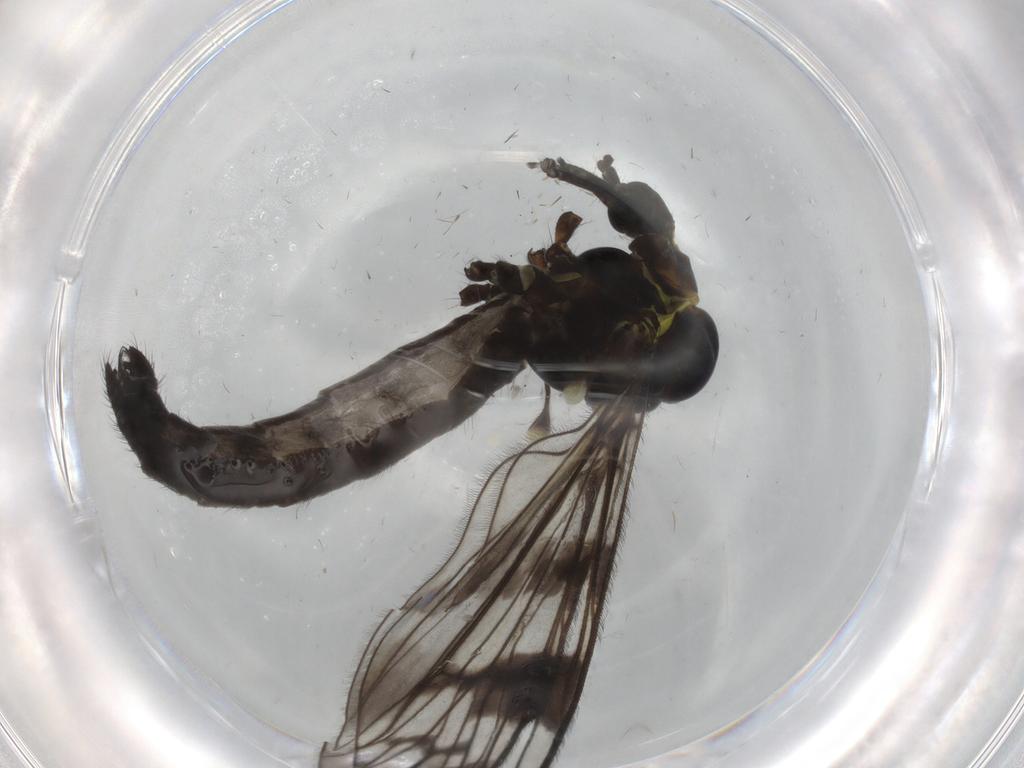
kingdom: Animalia
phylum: Arthropoda
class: Insecta
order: Diptera
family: Limoniidae
